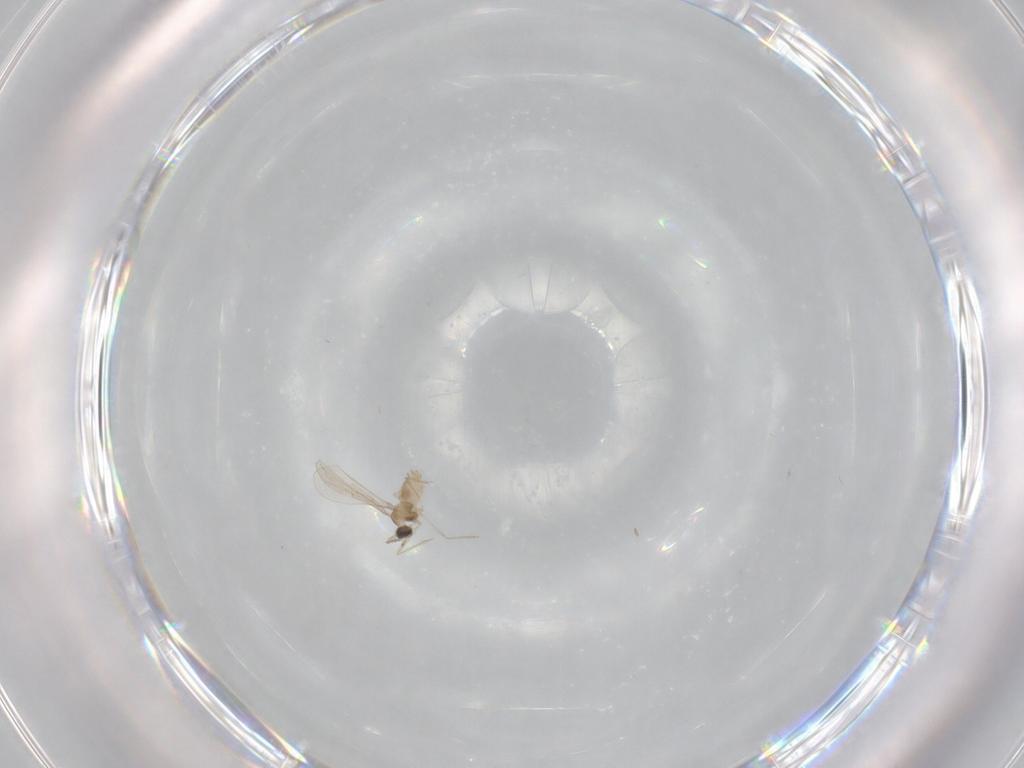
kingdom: Animalia
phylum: Arthropoda
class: Insecta
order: Diptera
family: Cecidomyiidae
